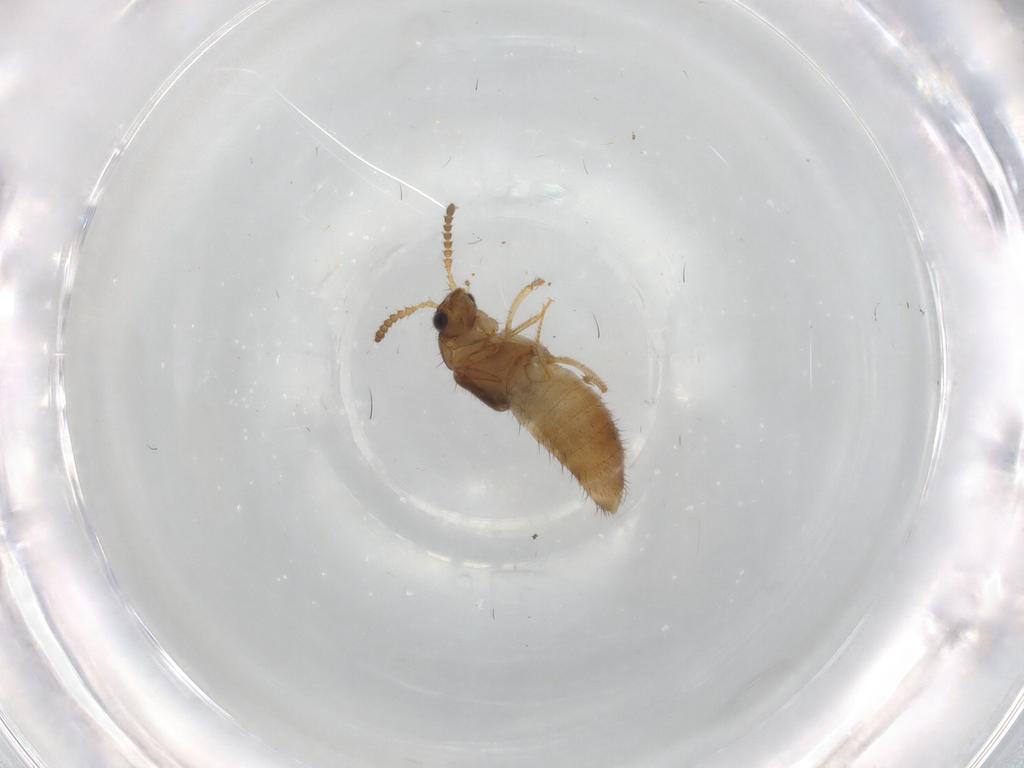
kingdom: Animalia
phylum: Arthropoda
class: Insecta
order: Coleoptera
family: Staphylinidae
